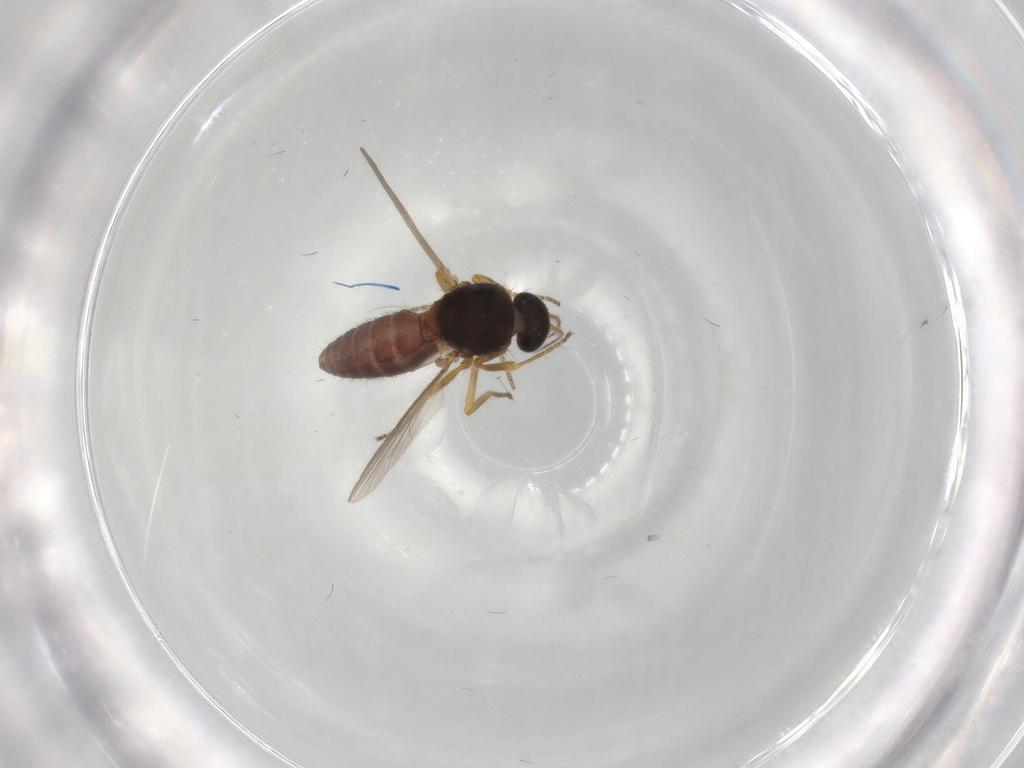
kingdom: Animalia
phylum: Arthropoda
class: Insecta
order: Diptera
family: Ceratopogonidae
